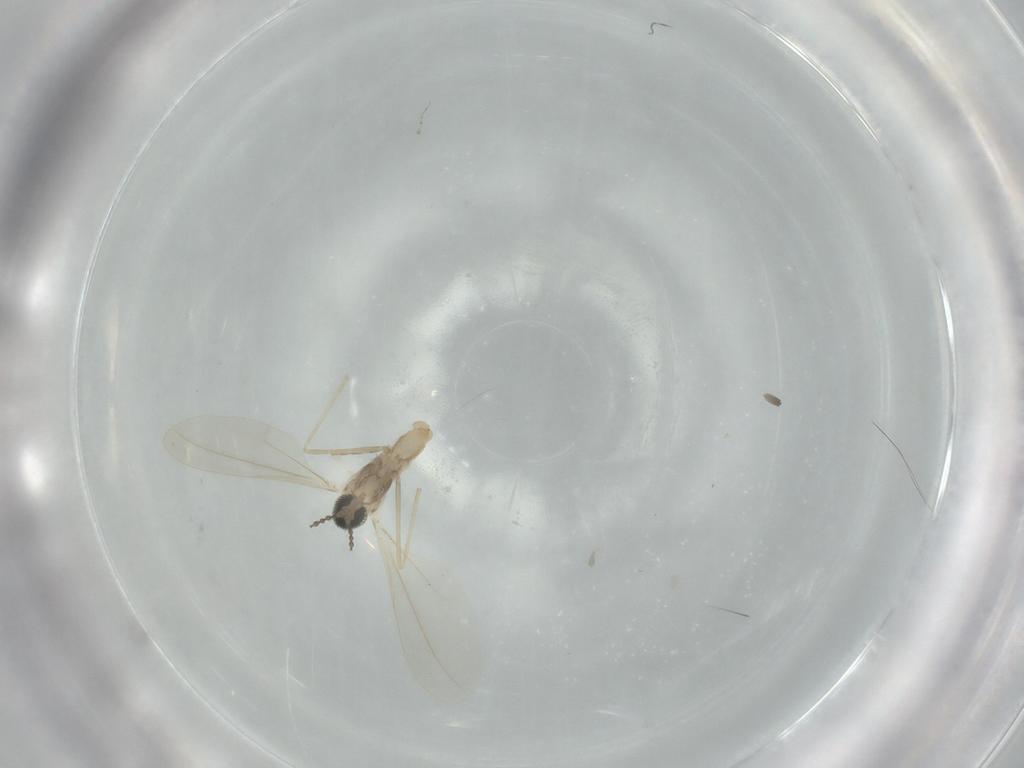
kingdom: Animalia
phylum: Arthropoda
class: Insecta
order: Diptera
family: Cecidomyiidae
